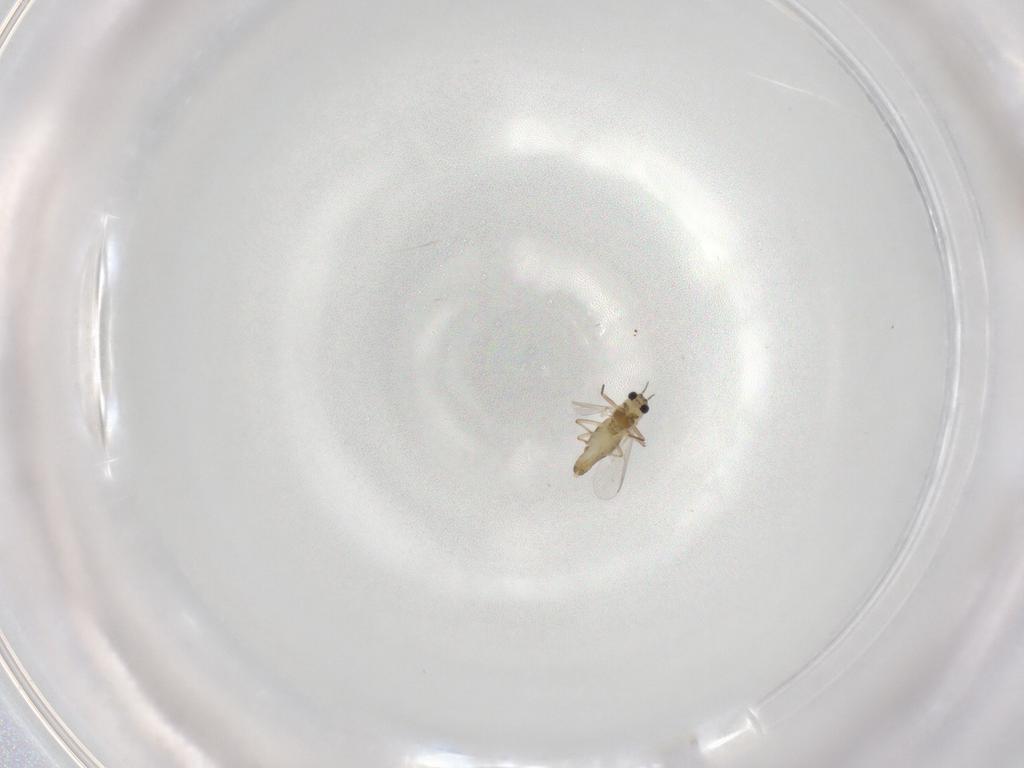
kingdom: Animalia
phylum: Arthropoda
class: Insecta
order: Diptera
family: Chironomidae
